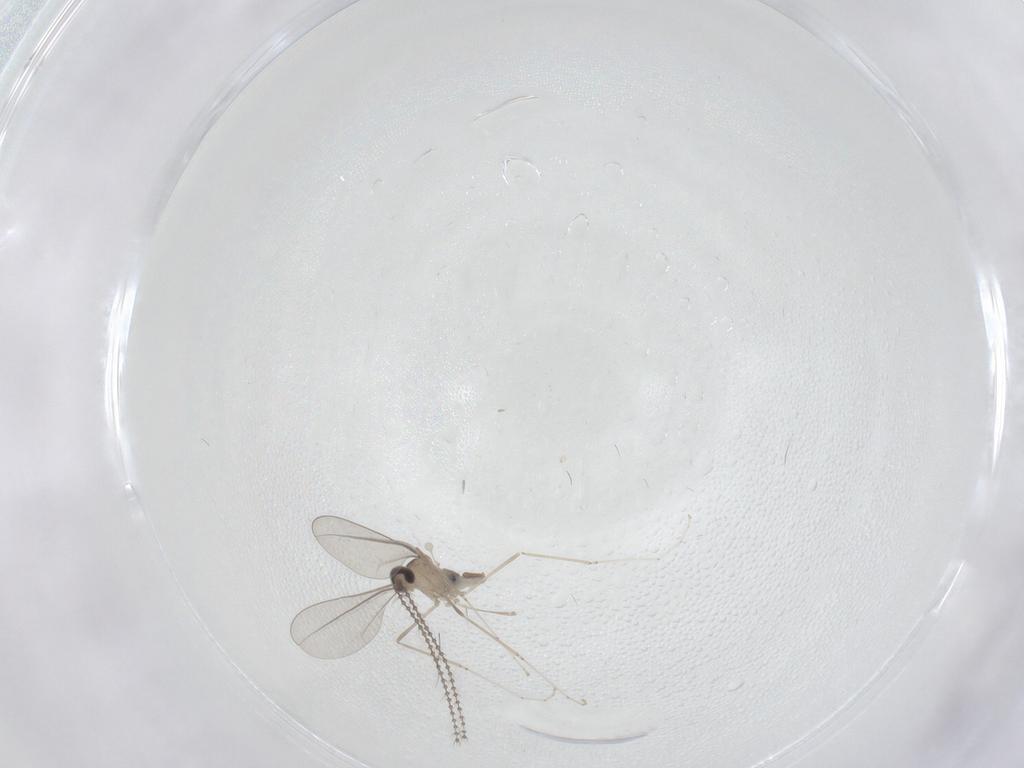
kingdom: Animalia
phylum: Arthropoda
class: Insecta
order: Diptera
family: Cecidomyiidae
